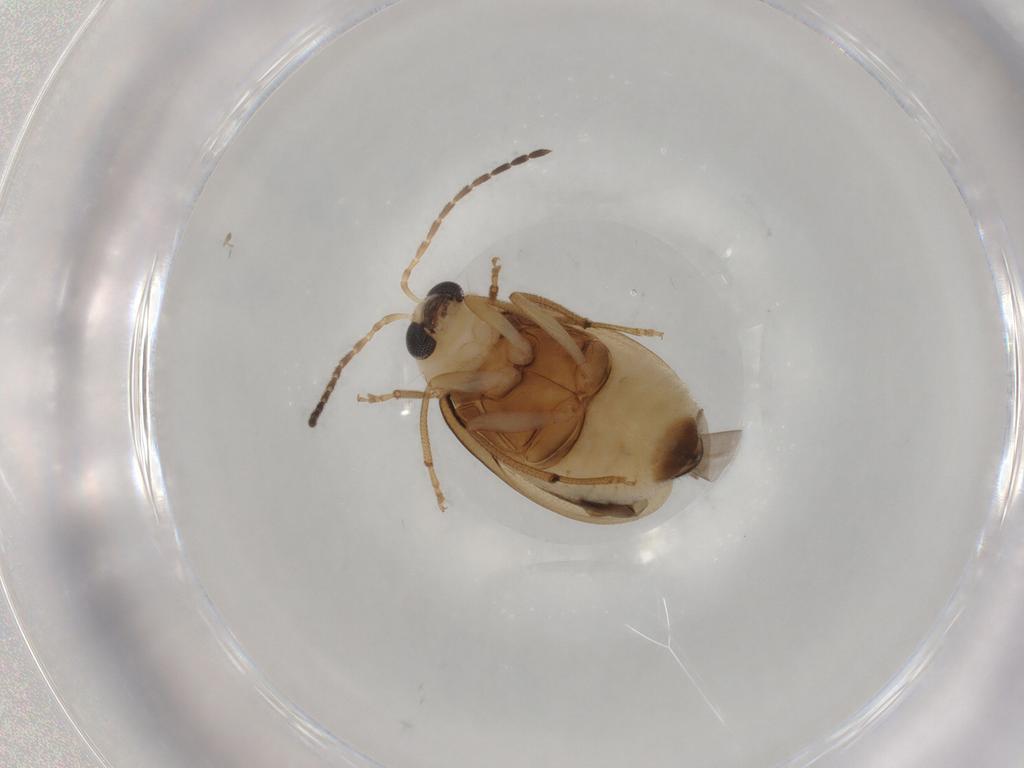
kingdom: Animalia
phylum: Arthropoda
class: Insecta
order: Coleoptera
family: Chrysomelidae
